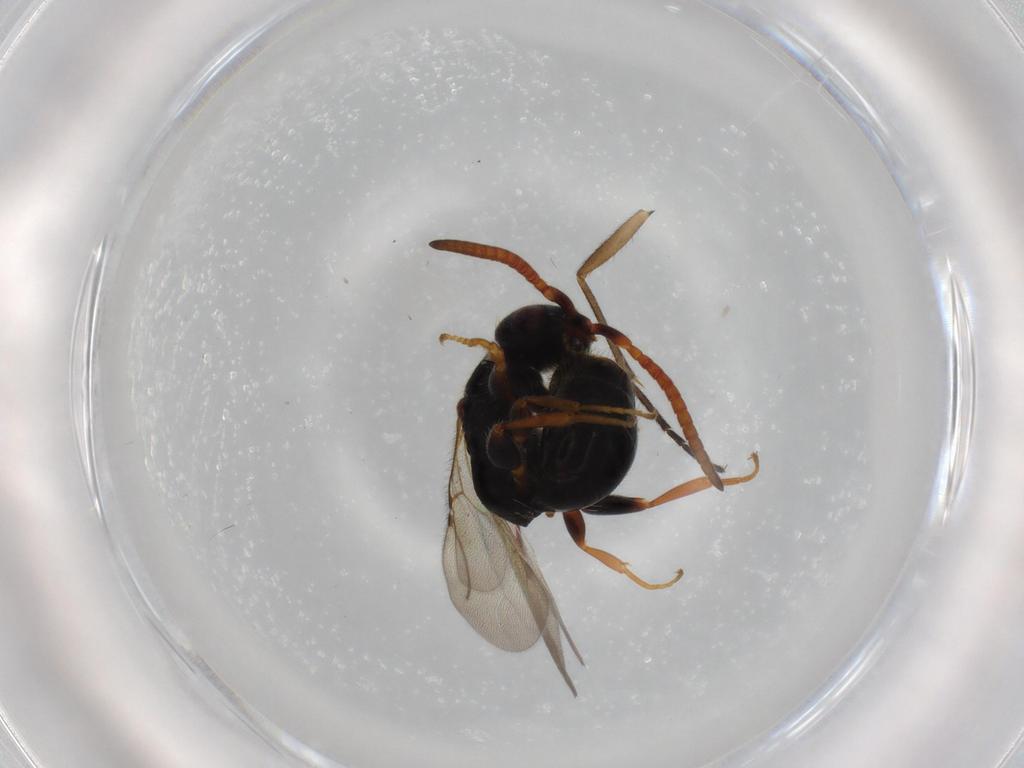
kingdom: Animalia
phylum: Arthropoda
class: Insecta
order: Hymenoptera
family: Bethylidae
